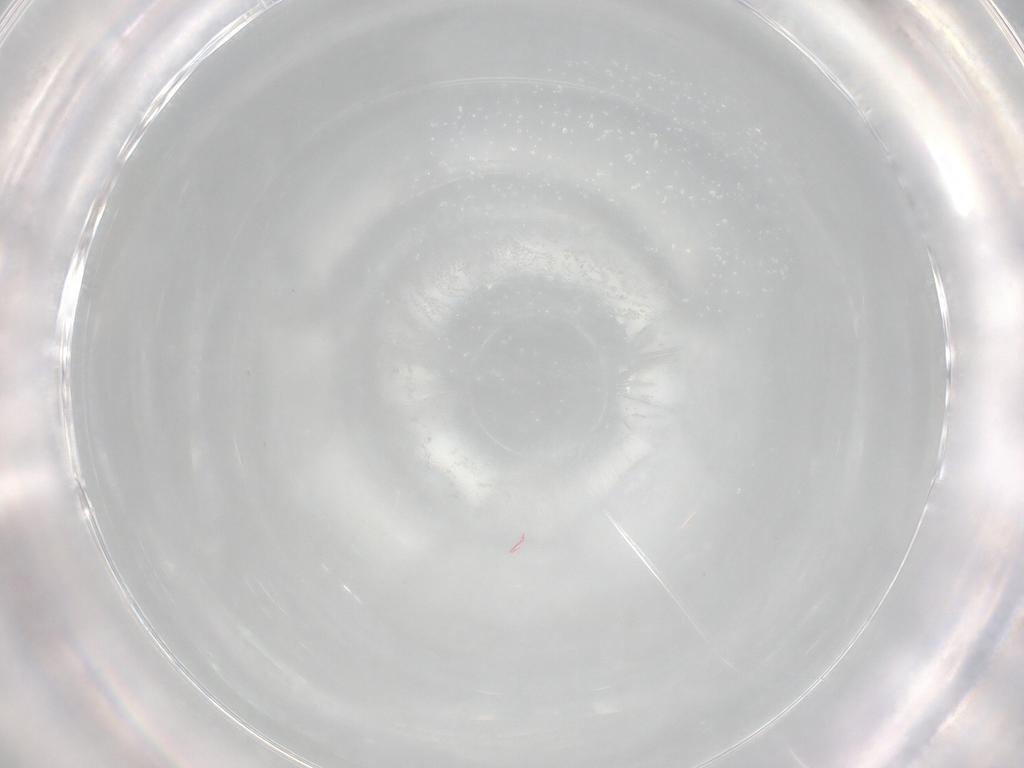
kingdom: Animalia
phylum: Arthropoda
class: Insecta
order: Diptera
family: Cecidomyiidae
